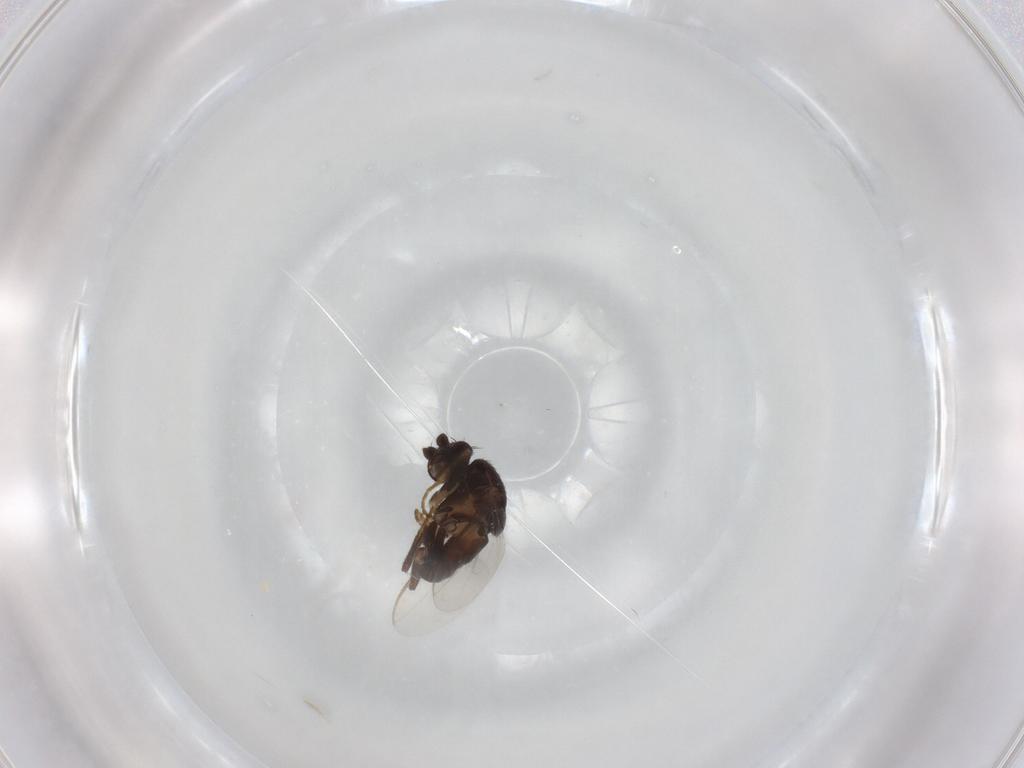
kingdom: Animalia
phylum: Arthropoda
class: Insecta
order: Diptera
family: Sphaeroceridae
